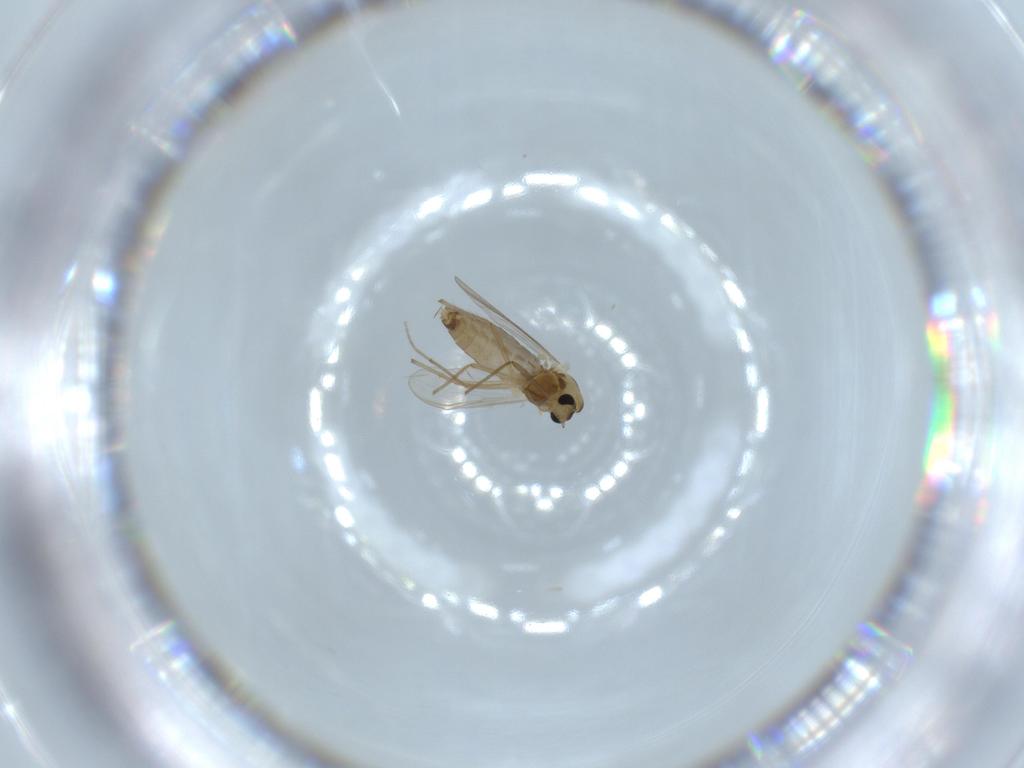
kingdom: Animalia
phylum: Arthropoda
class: Insecta
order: Diptera
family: Chironomidae
